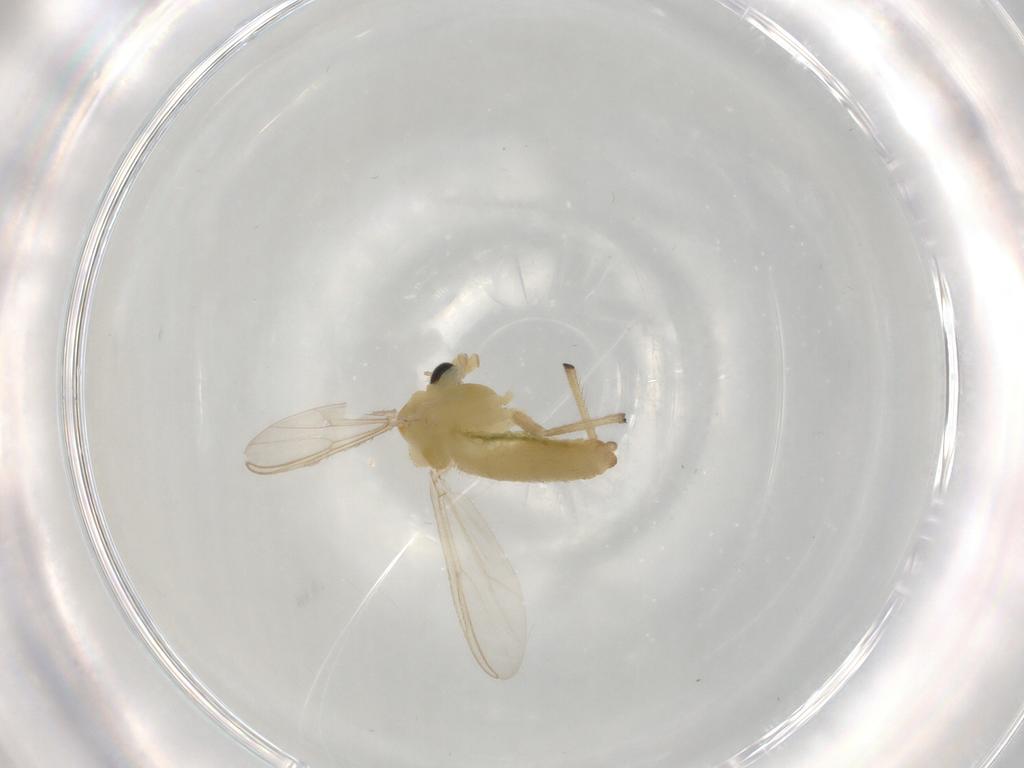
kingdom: Animalia
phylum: Arthropoda
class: Insecta
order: Diptera
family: Chironomidae
